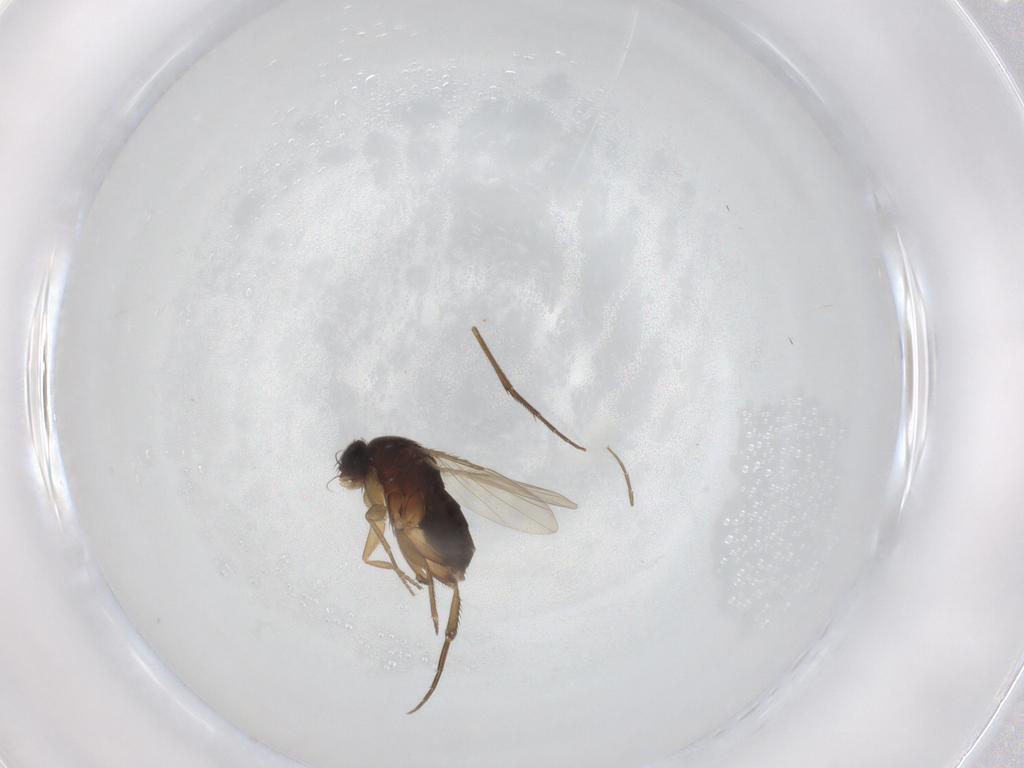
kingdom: Animalia
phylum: Arthropoda
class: Insecta
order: Diptera
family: Phoridae
